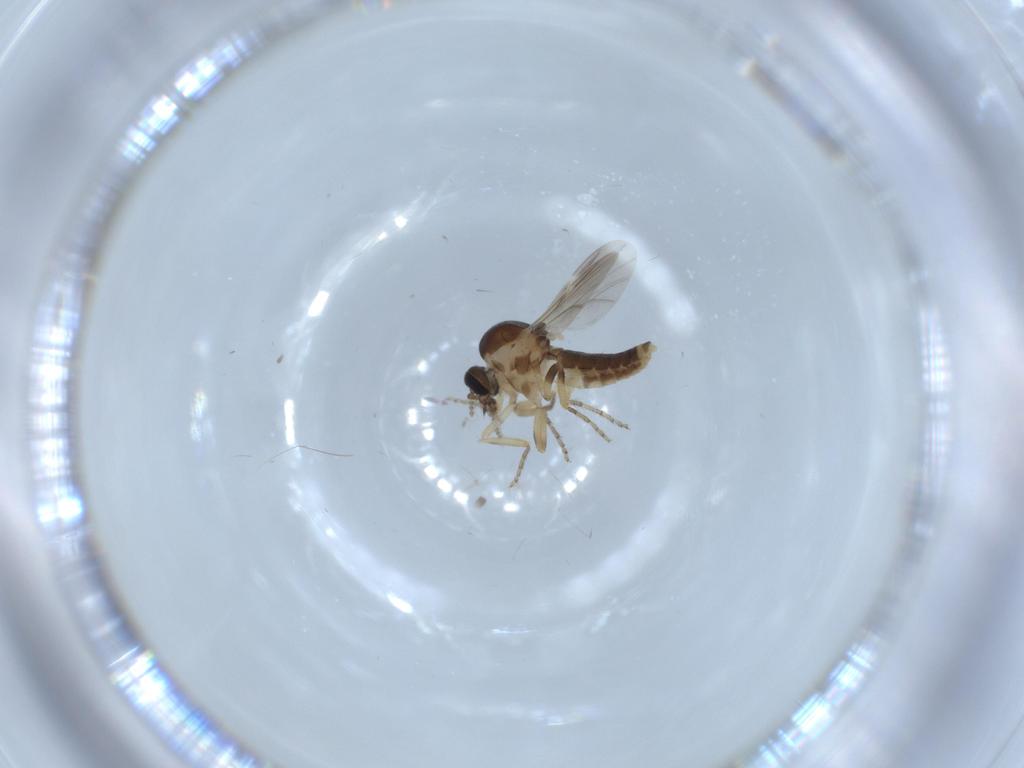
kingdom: Animalia
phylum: Arthropoda
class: Insecta
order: Diptera
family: Ceratopogonidae
